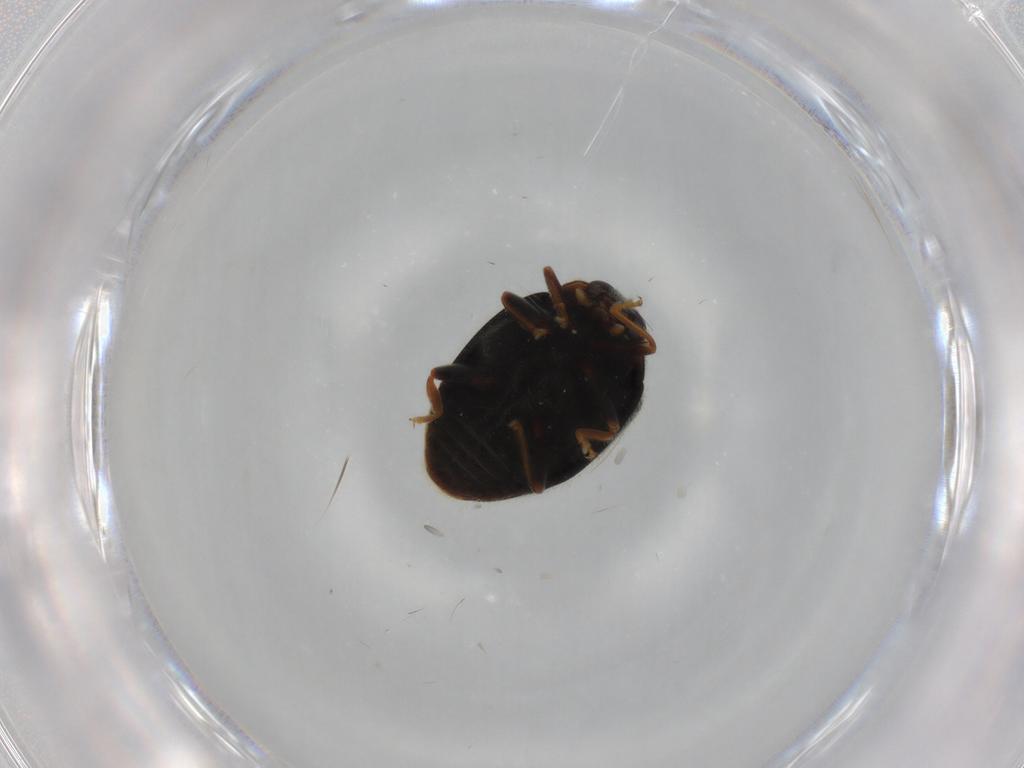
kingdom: Animalia
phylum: Arthropoda
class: Insecta
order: Coleoptera
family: Coccinellidae
